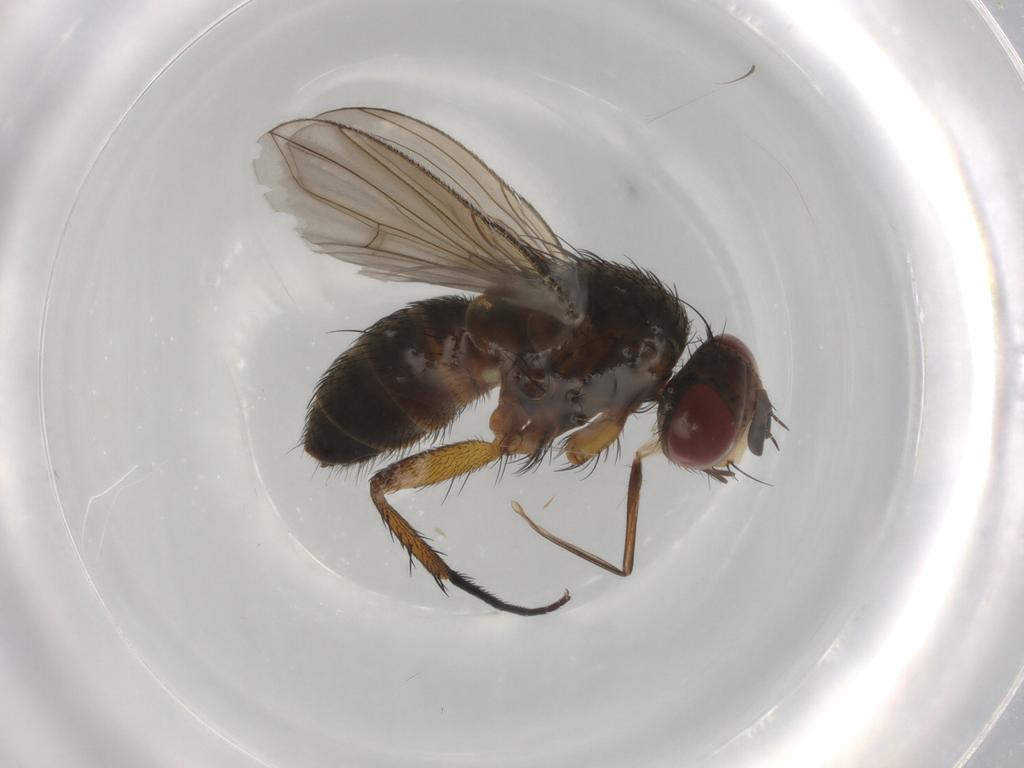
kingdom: Animalia
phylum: Arthropoda
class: Insecta
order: Diptera
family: Tachinidae
